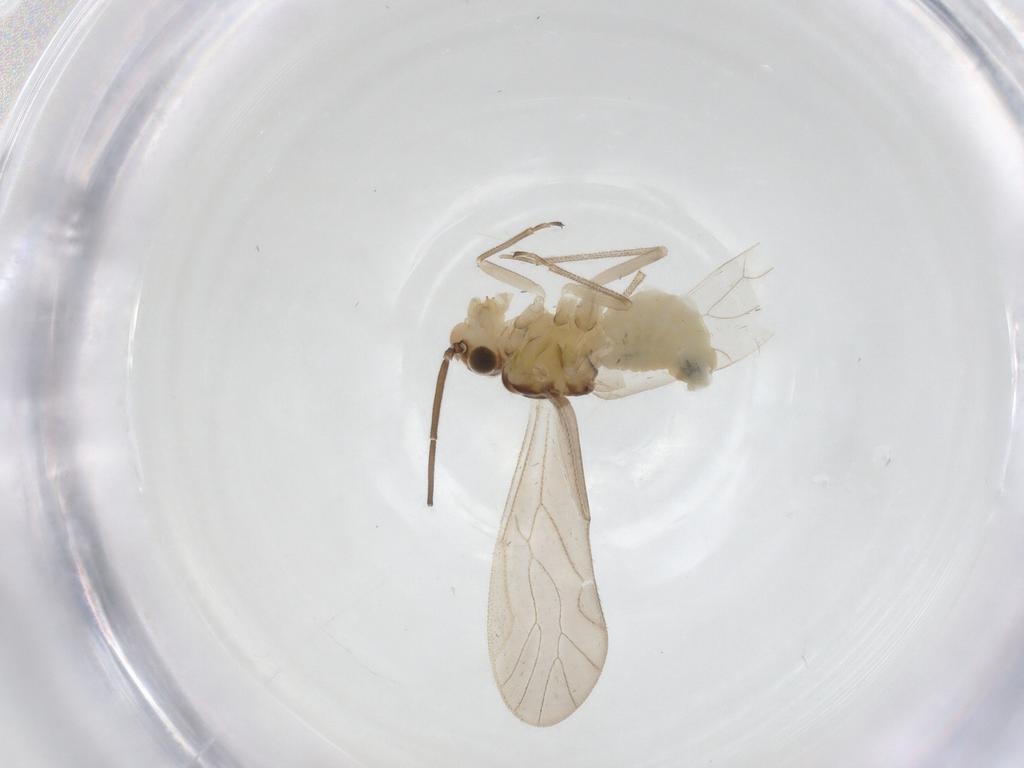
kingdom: Animalia
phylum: Arthropoda
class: Insecta
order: Psocodea
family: Caeciliusidae
